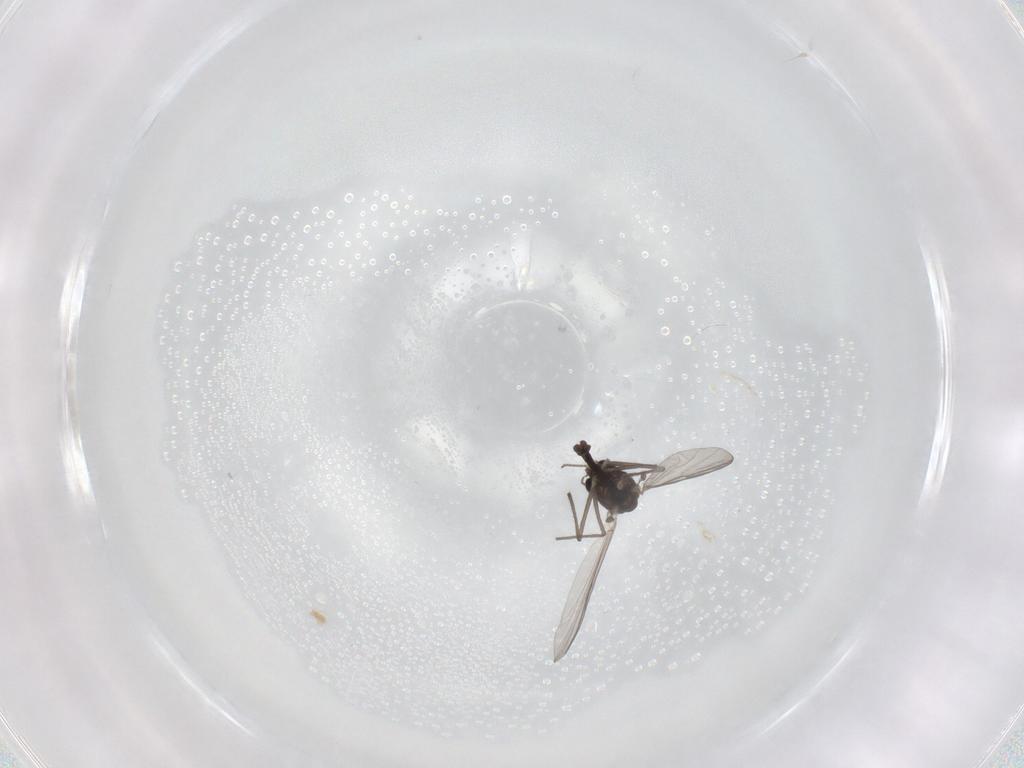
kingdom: Animalia
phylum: Arthropoda
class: Insecta
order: Diptera
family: Chironomidae
